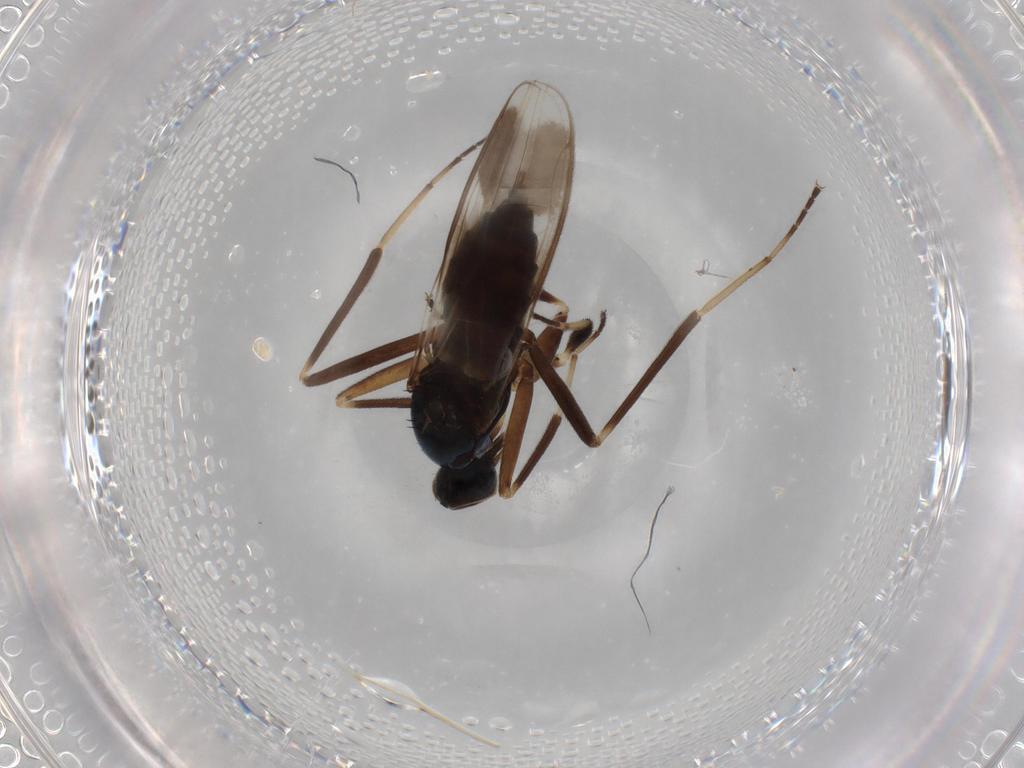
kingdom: Animalia
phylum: Arthropoda
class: Insecta
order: Diptera
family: Hybotidae
